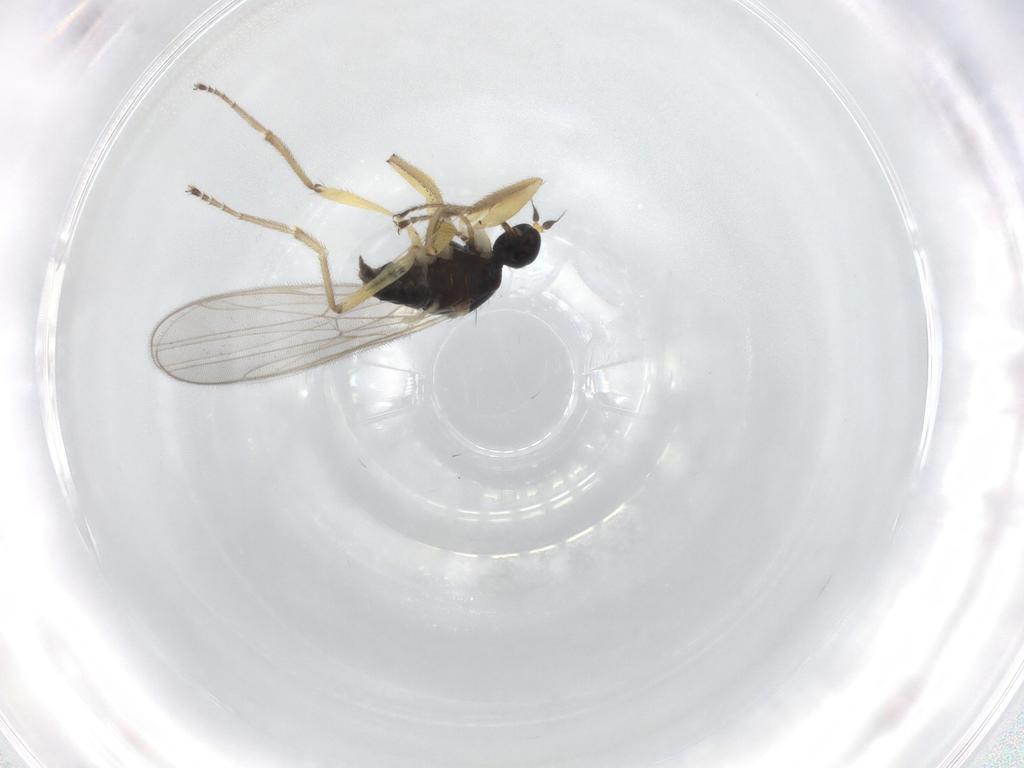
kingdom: Animalia
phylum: Arthropoda
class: Insecta
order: Diptera
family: Hybotidae
